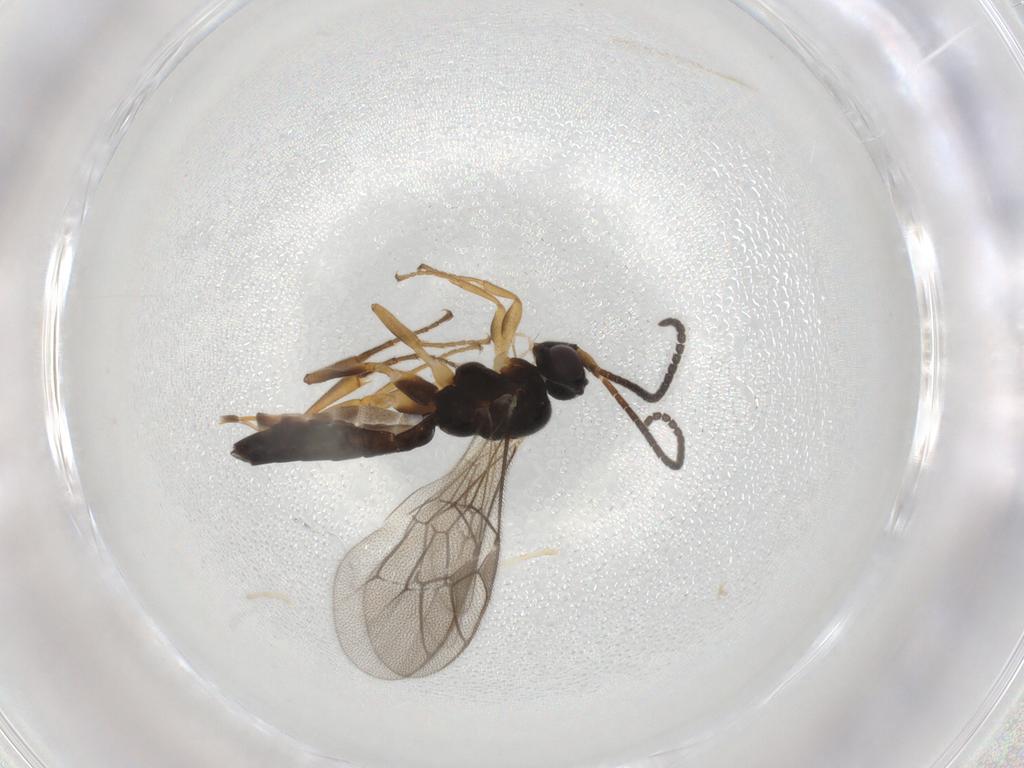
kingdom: Animalia
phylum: Arthropoda
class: Insecta
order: Hymenoptera
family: Ichneumonidae
